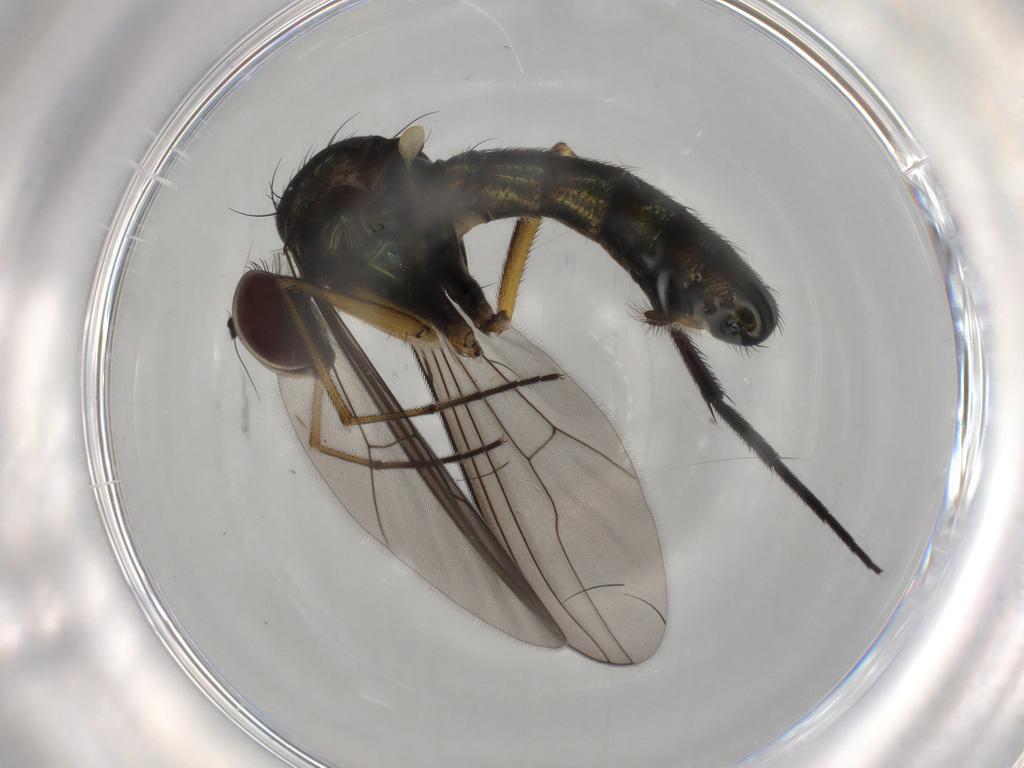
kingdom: Animalia
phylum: Arthropoda
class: Insecta
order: Diptera
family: Dolichopodidae
